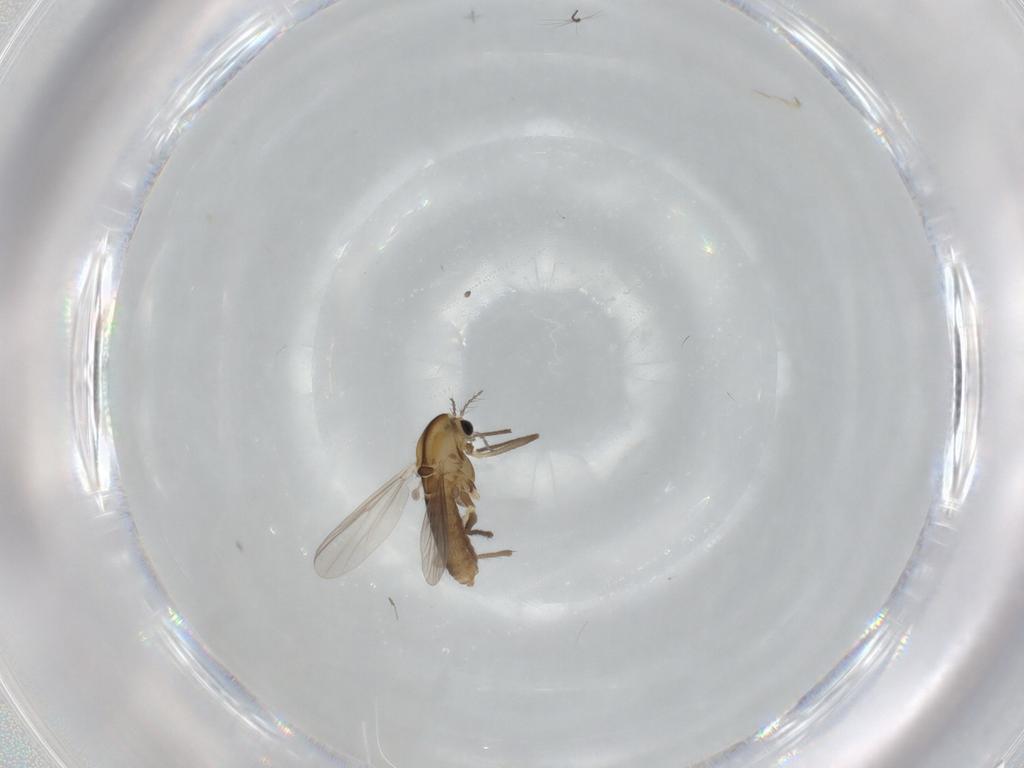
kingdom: Animalia
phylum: Arthropoda
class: Insecta
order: Diptera
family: Chironomidae
